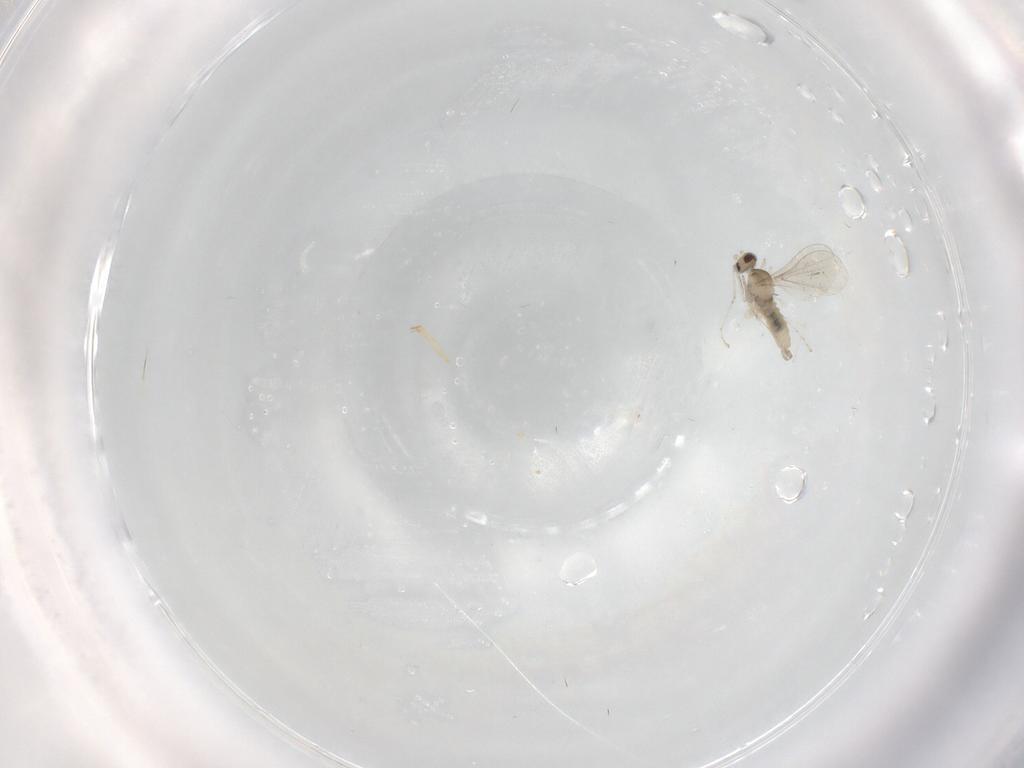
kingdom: Animalia
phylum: Arthropoda
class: Insecta
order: Diptera
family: Cecidomyiidae
